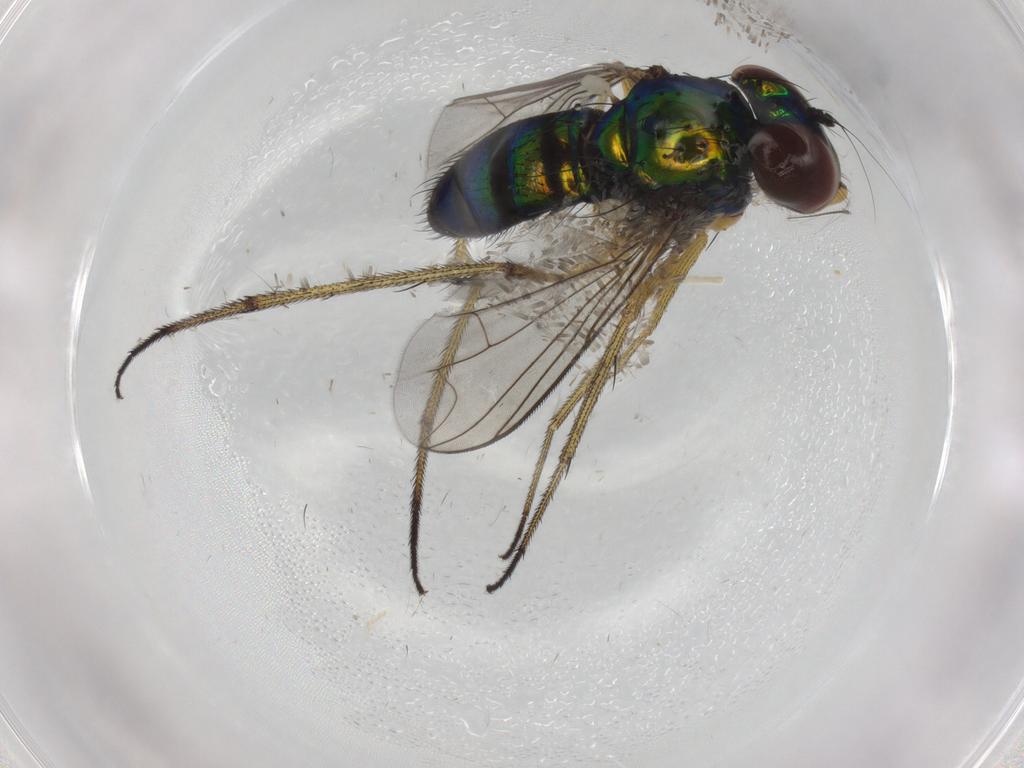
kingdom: Animalia
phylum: Arthropoda
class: Insecta
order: Diptera
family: Dolichopodidae
